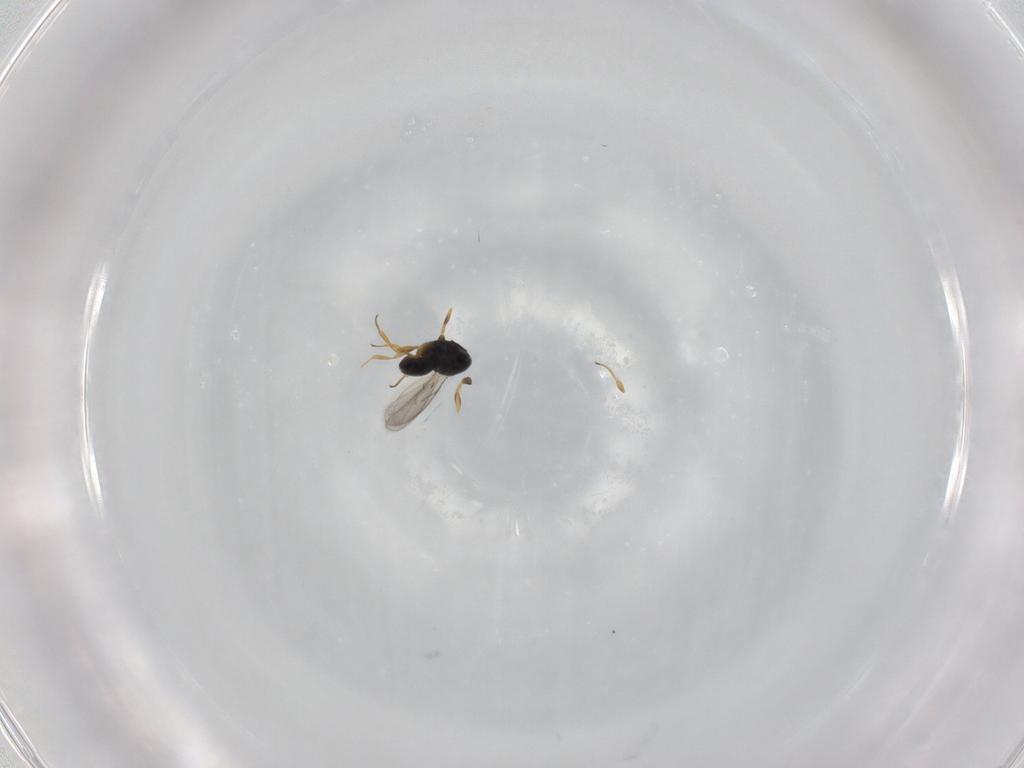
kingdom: Animalia
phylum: Arthropoda
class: Insecta
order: Hymenoptera
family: Scelionidae
